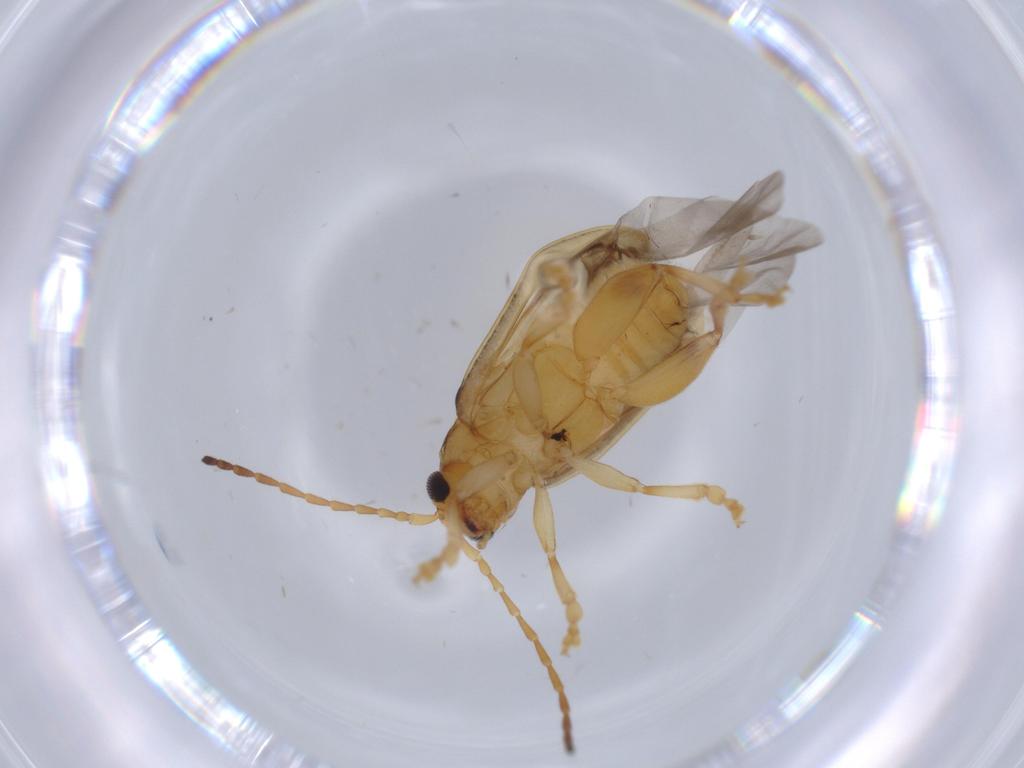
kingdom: Animalia
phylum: Arthropoda
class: Insecta
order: Coleoptera
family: Chrysomelidae
